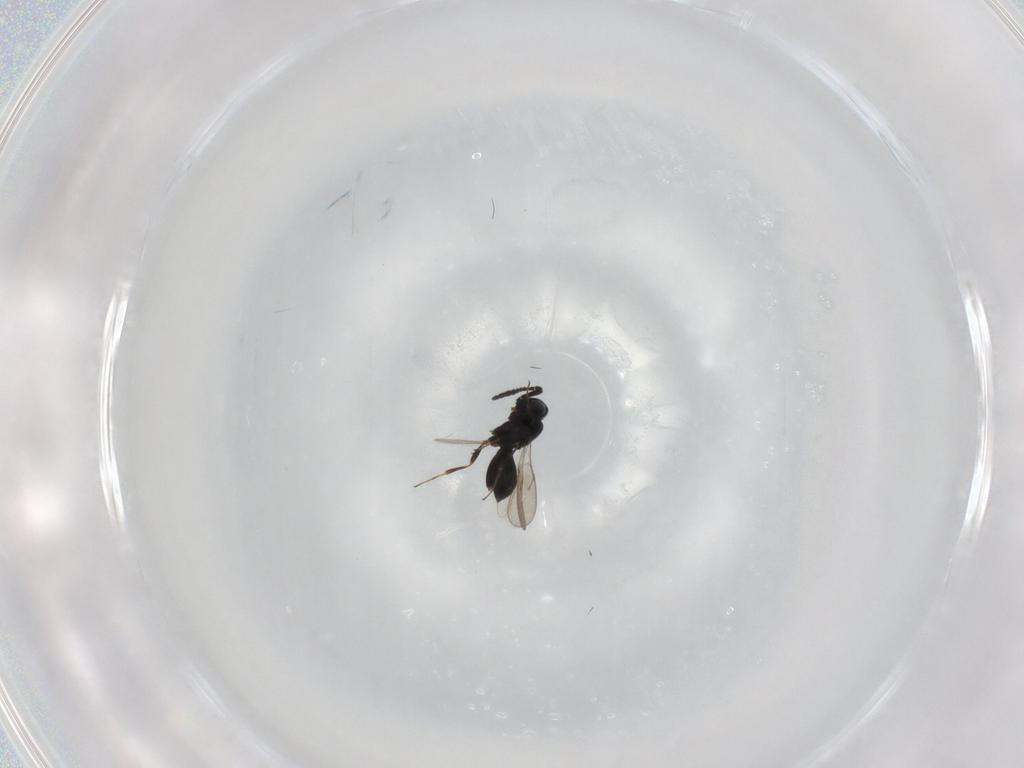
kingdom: Animalia
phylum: Arthropoda
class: Insecta
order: Hymenoptera
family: Scelionidae
